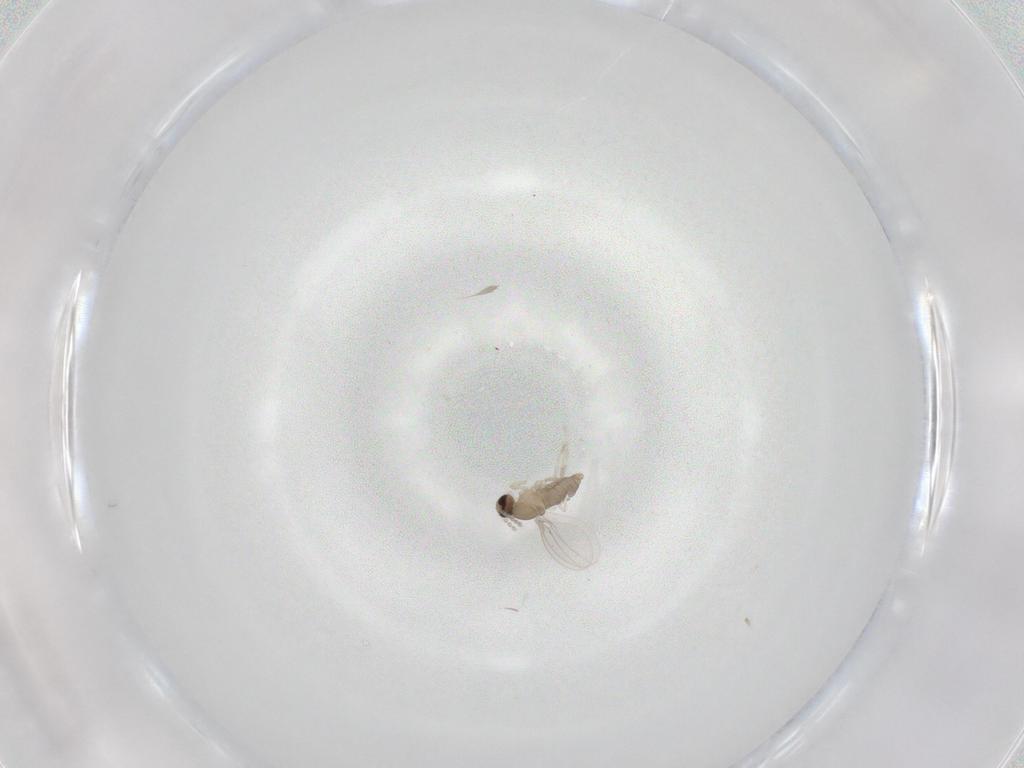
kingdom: Animalia
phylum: Arthropoda
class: Insecta
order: Diptera
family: Cecidomyiidae
